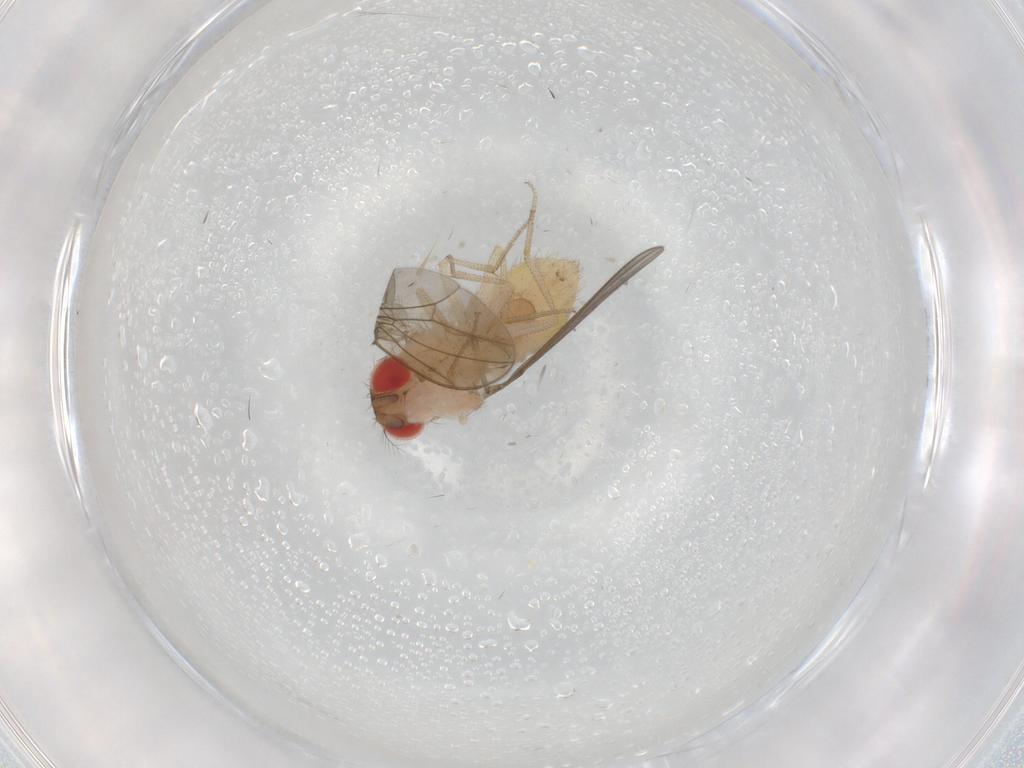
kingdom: Animalia
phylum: Arthropoda
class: Insecta
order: Diptera
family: Drosophilidae
